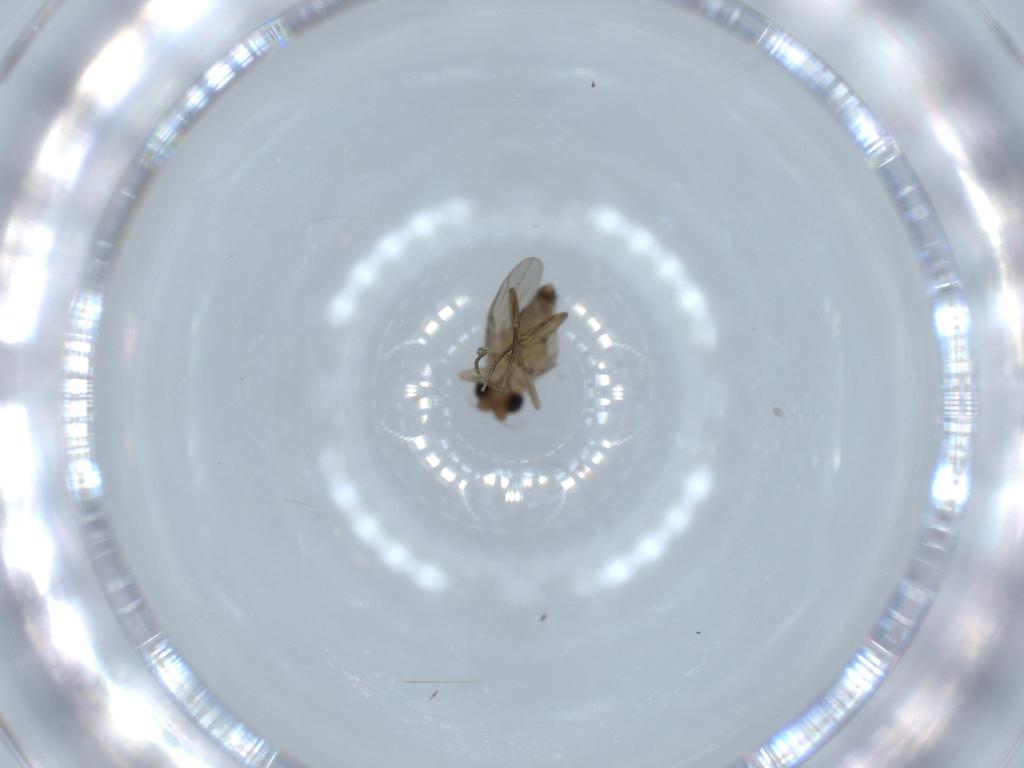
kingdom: Animalia
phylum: Arthropoda
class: Insecta
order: Diptera
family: Phoridae
